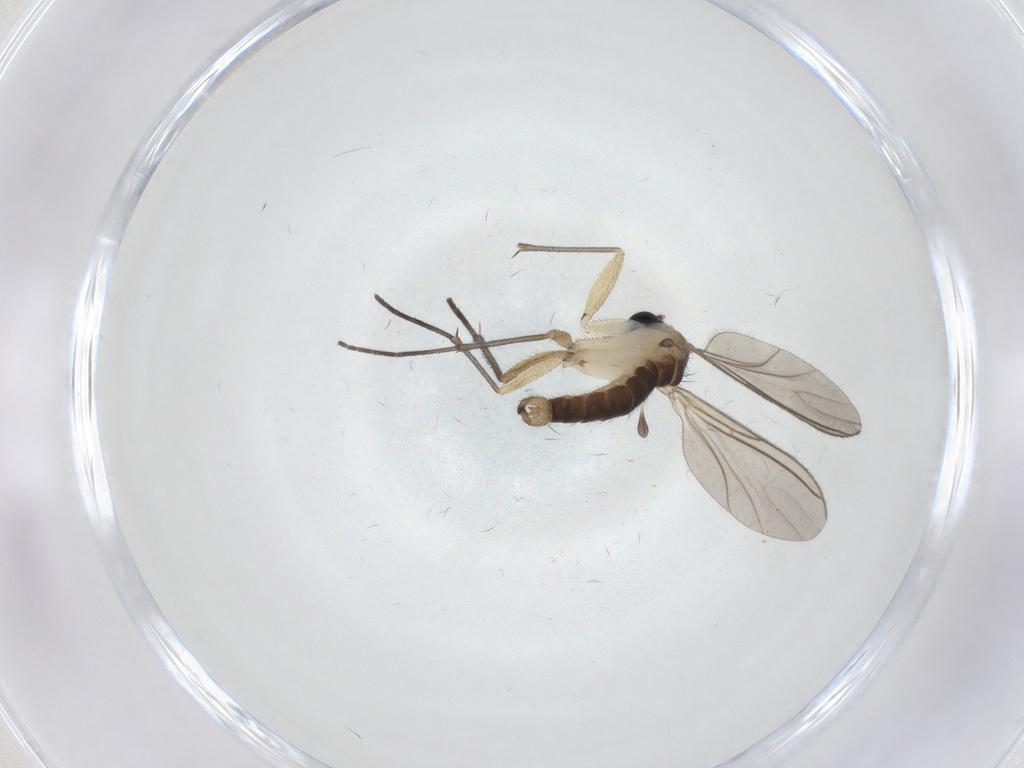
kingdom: Animalia
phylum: Arthropoda
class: Insecta
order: Diptera
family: Sciaridae
